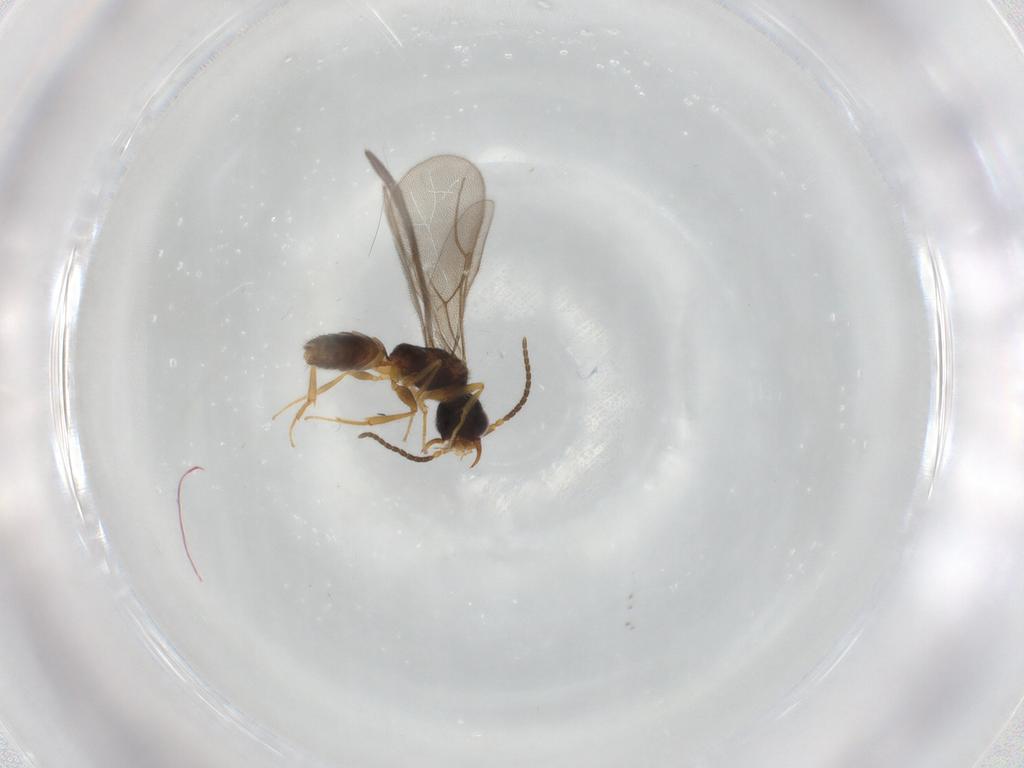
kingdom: Animalia
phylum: Arthropoda
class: Insecta
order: Hymenoptera
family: Bethylidae
